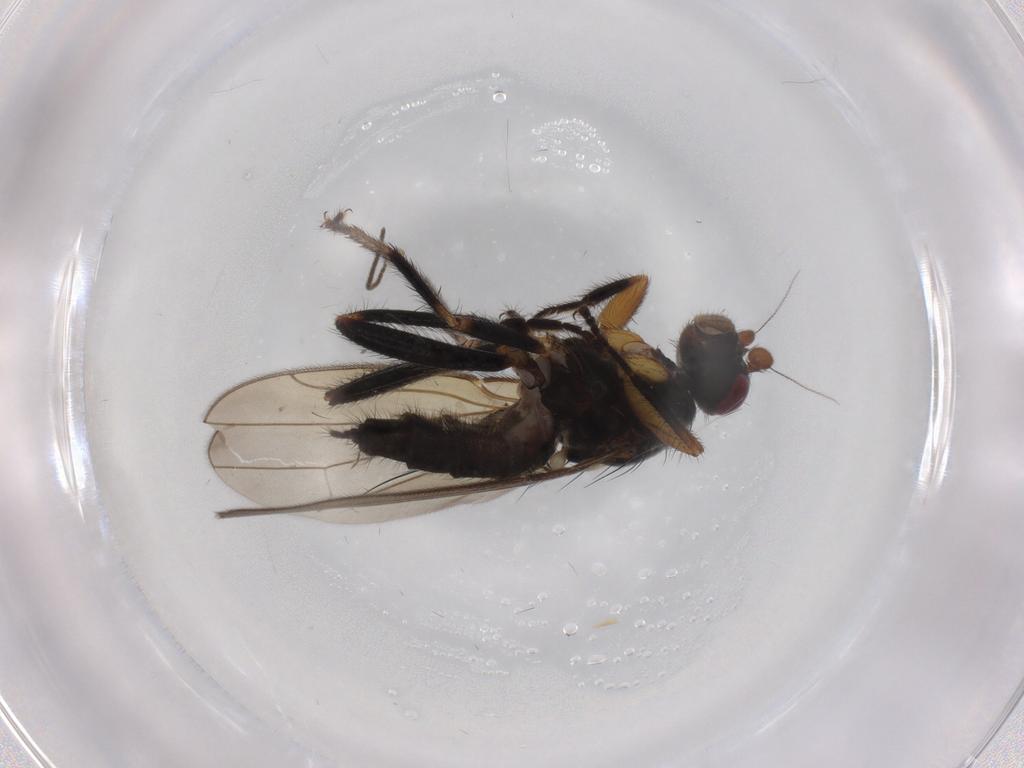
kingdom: Animalia
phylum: Arthropoda
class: Insecta
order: Diptera
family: Sphaeroceridae
